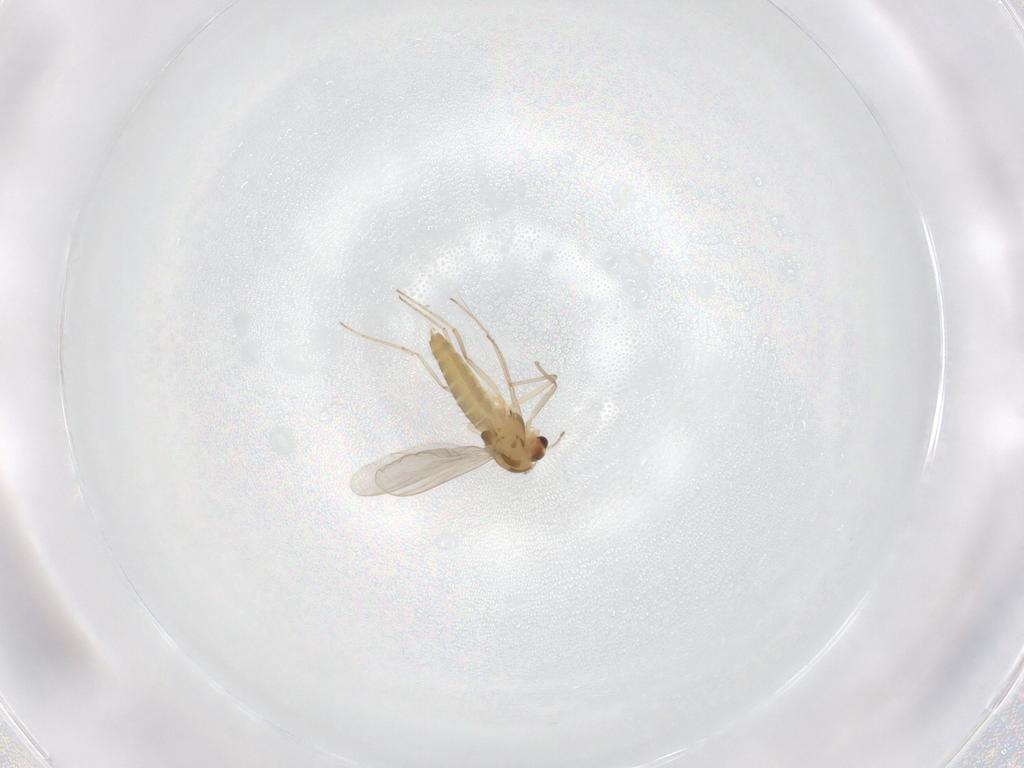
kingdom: Animalia
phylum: Arthropoda
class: Insecta
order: Diptera
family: Chironomidae
